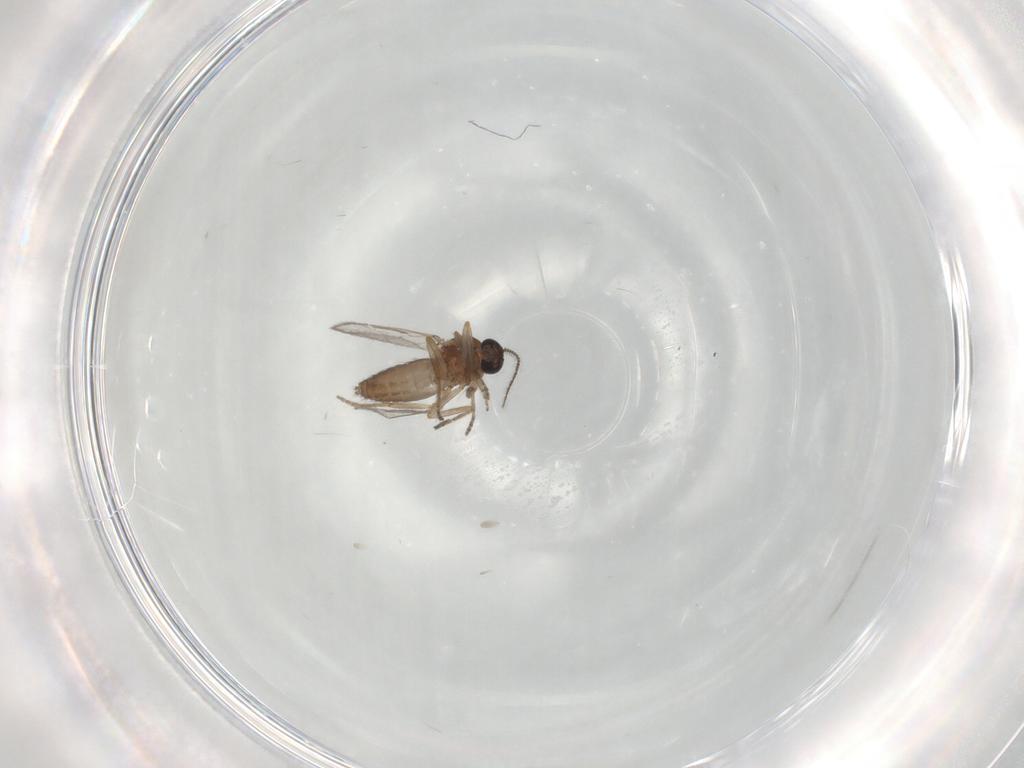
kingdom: Animalia
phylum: Arthropoda
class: Insecta
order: Diptera
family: Ceratopogonidae
